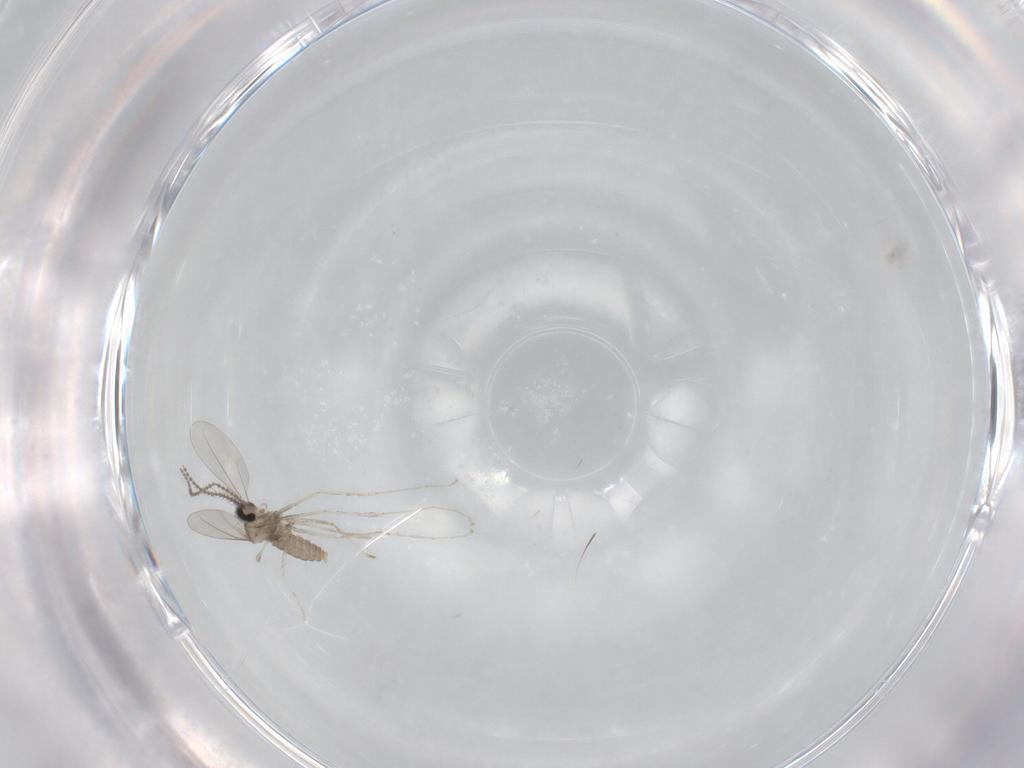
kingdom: Animalia
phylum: Arthropoda
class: Insecta
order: Diptera
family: Cecidomyiidae
